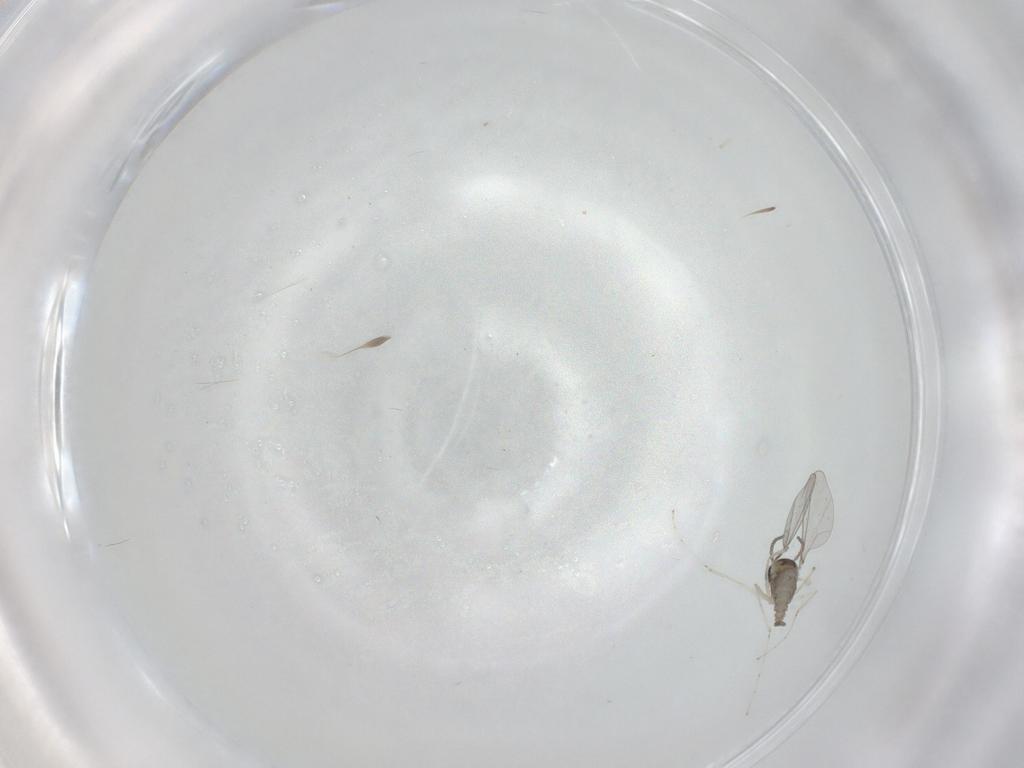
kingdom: Animalia
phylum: Arthropoda
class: Insecta
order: Diptera
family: Cecidomyiidae
